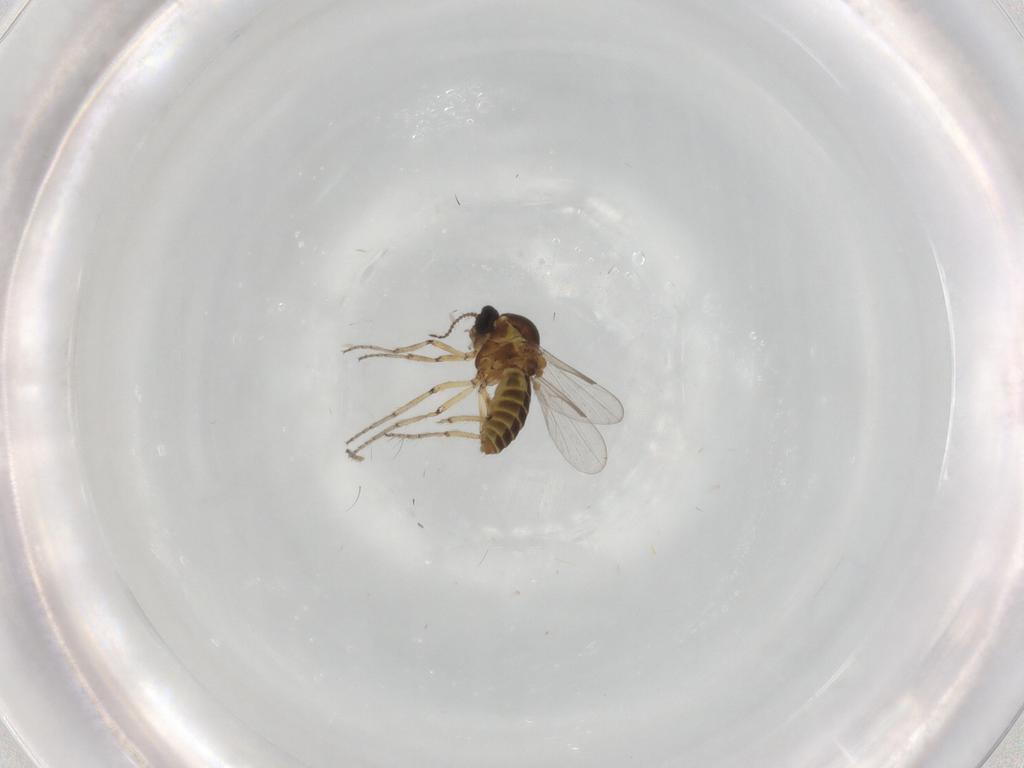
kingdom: Animalia
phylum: Arthropoda
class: Insecta
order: Diptera
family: Ceratopogonidae
